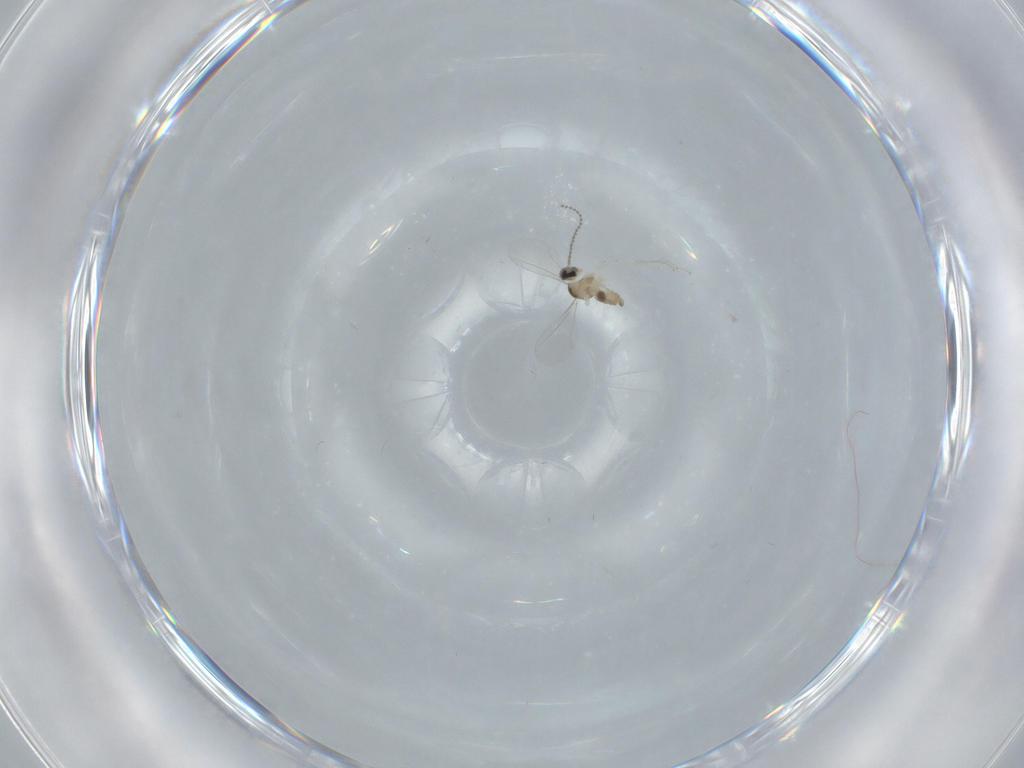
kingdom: Animalia
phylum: Arthropoda
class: Insecta
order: Diptera
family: Cecidomyiidae
